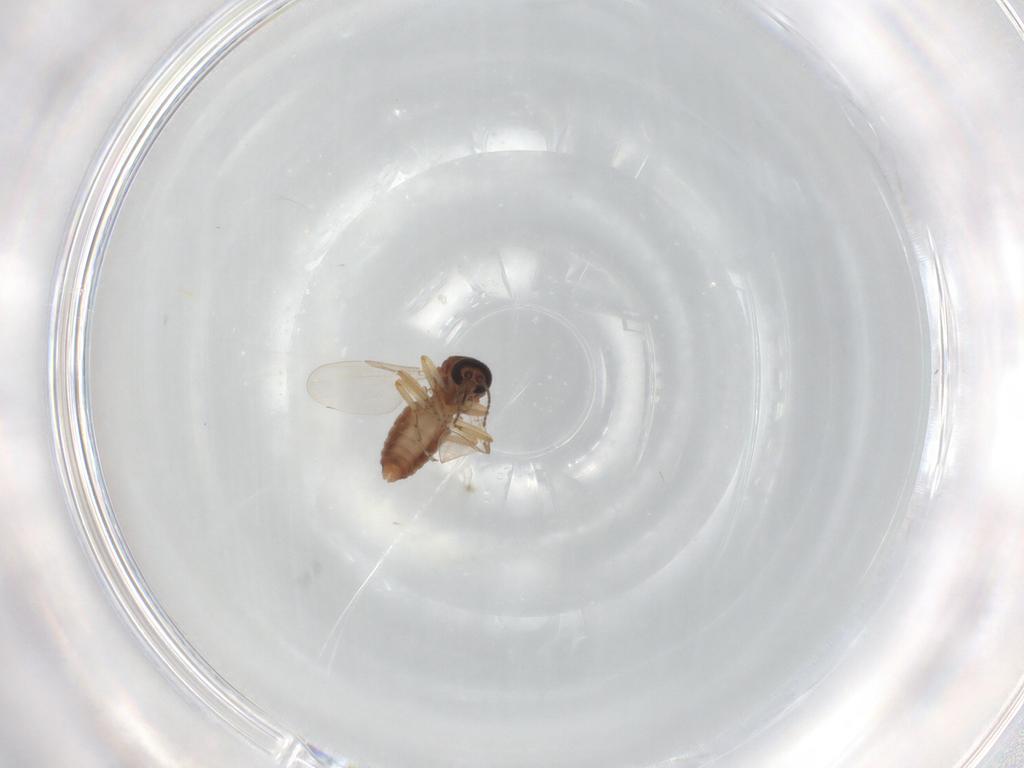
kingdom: Animalia
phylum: Arthropoda
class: Insecta
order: Diptera
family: Ceratopogonidae
